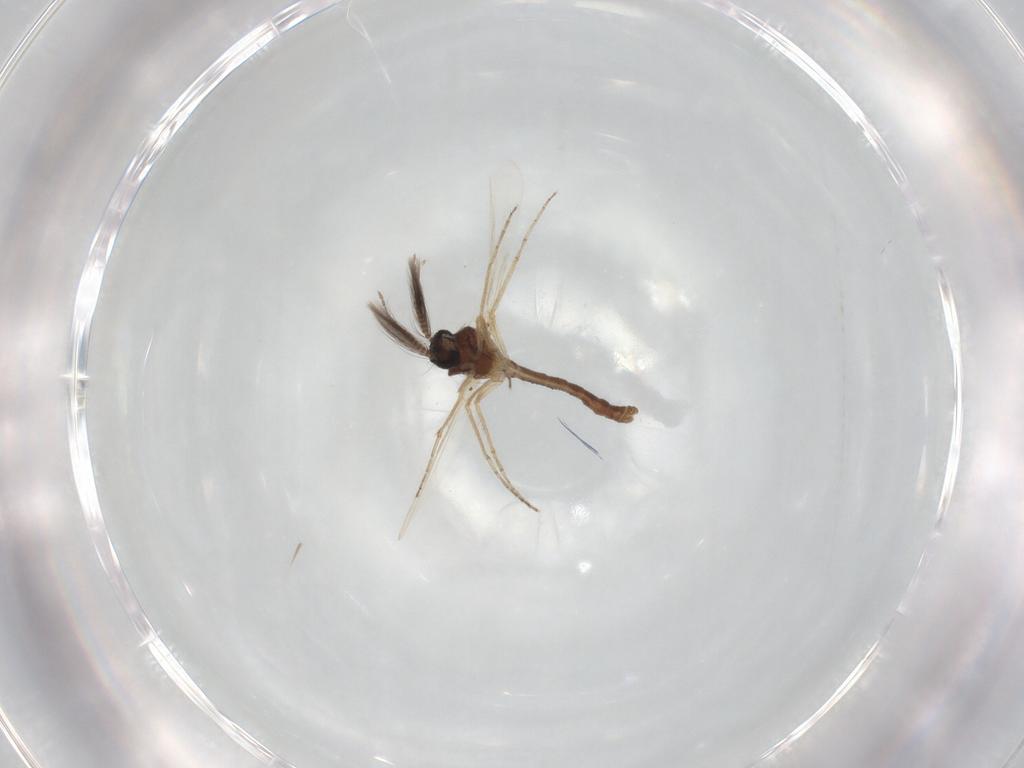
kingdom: Animalia
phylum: Arthropoda
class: Insecta
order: Diptera
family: Ceratopogonidae
